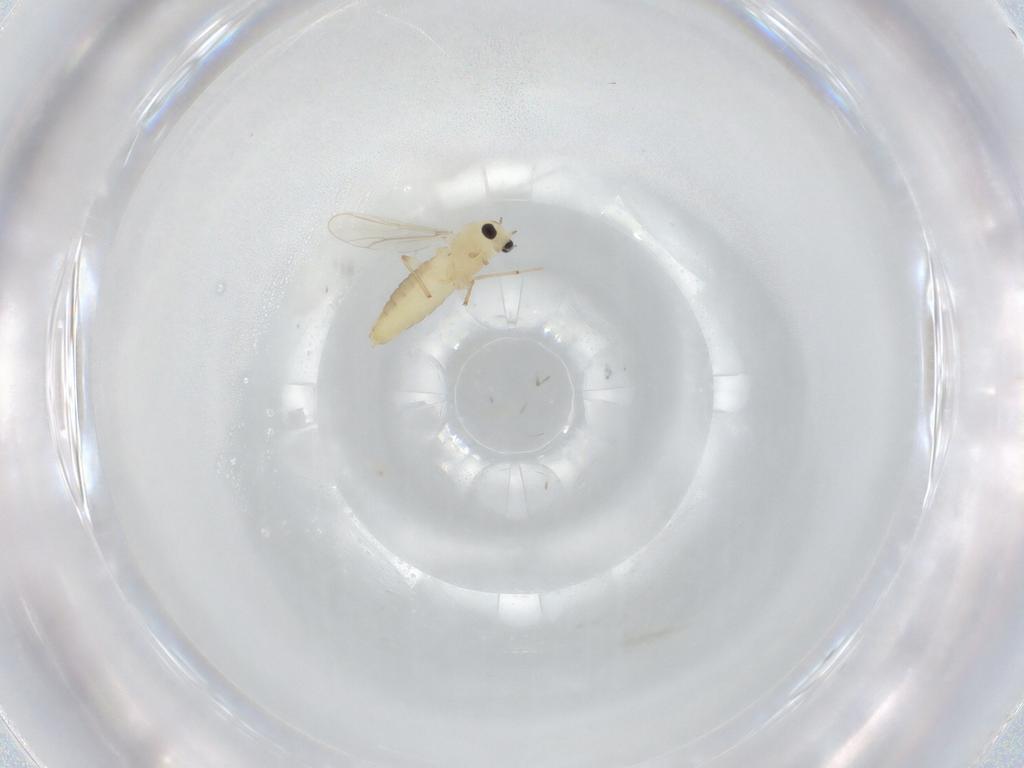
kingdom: Animalia
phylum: Arthropoda
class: Insecta
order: Diptera
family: Chironomidae
